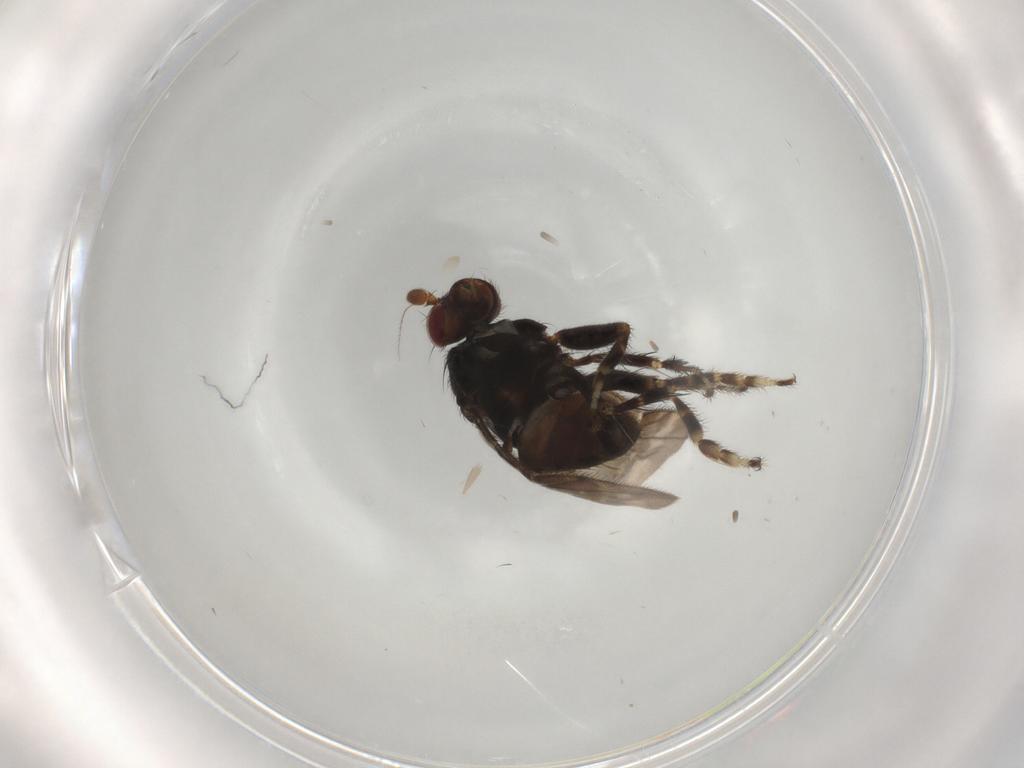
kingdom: Animalia
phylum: Arthropoda
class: Insecta
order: Diptera
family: Sphaeroceridae
